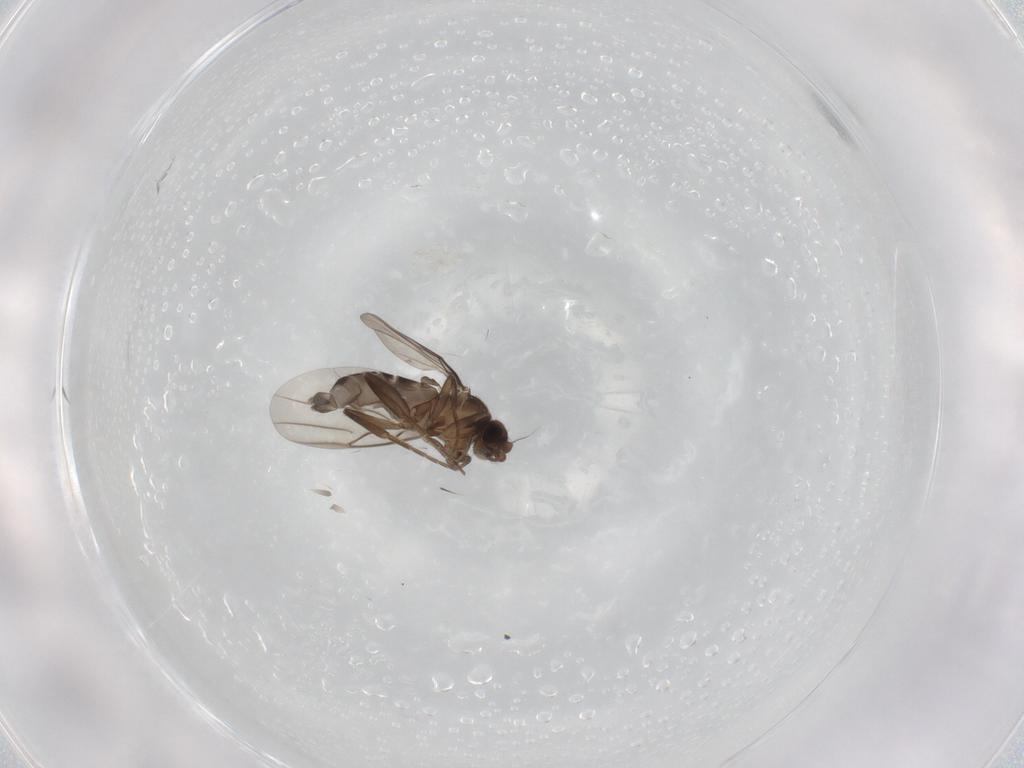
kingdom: Animalia
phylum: Arthropoda
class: Insecta
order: Diptera
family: Phoridae
